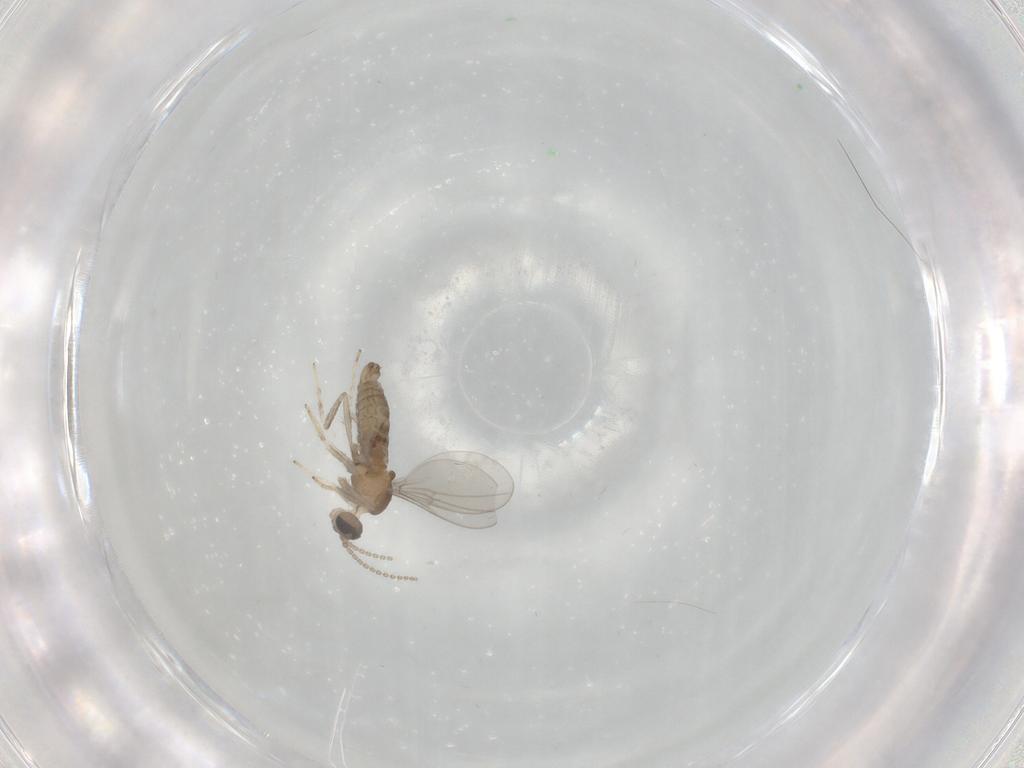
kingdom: Animalia
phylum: Arthropoda
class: Insecta
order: Diptera
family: Cecidomyiidae
